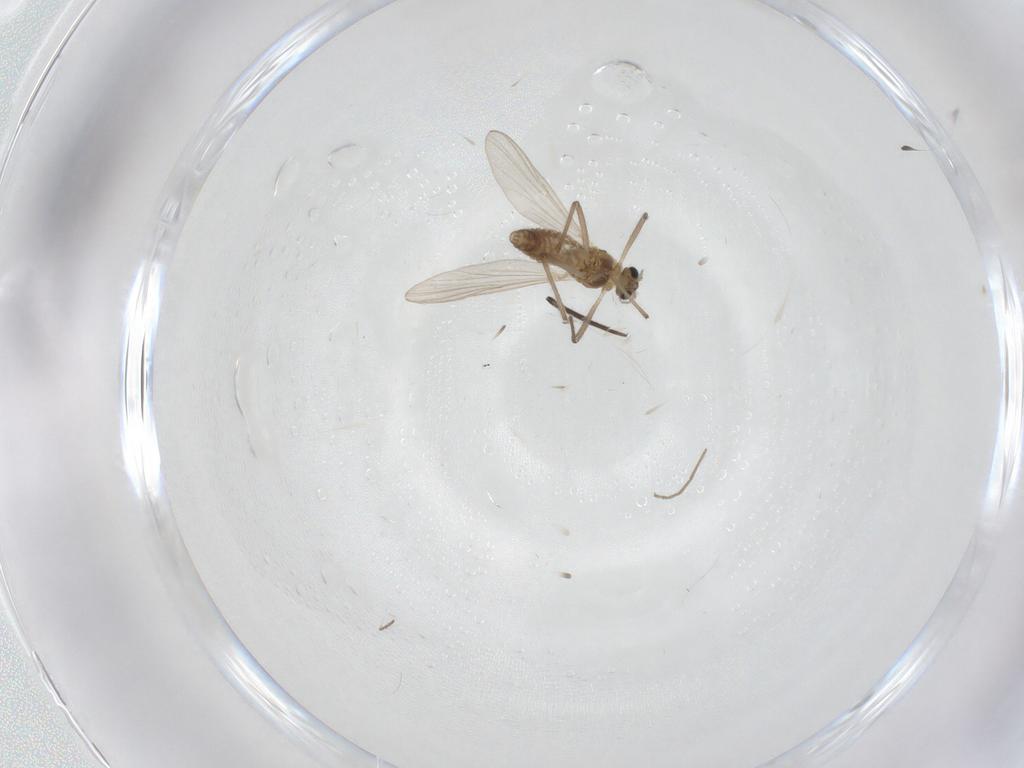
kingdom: Animalia
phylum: Arthropoda
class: Insecta
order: Diptera
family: Chironomidae
